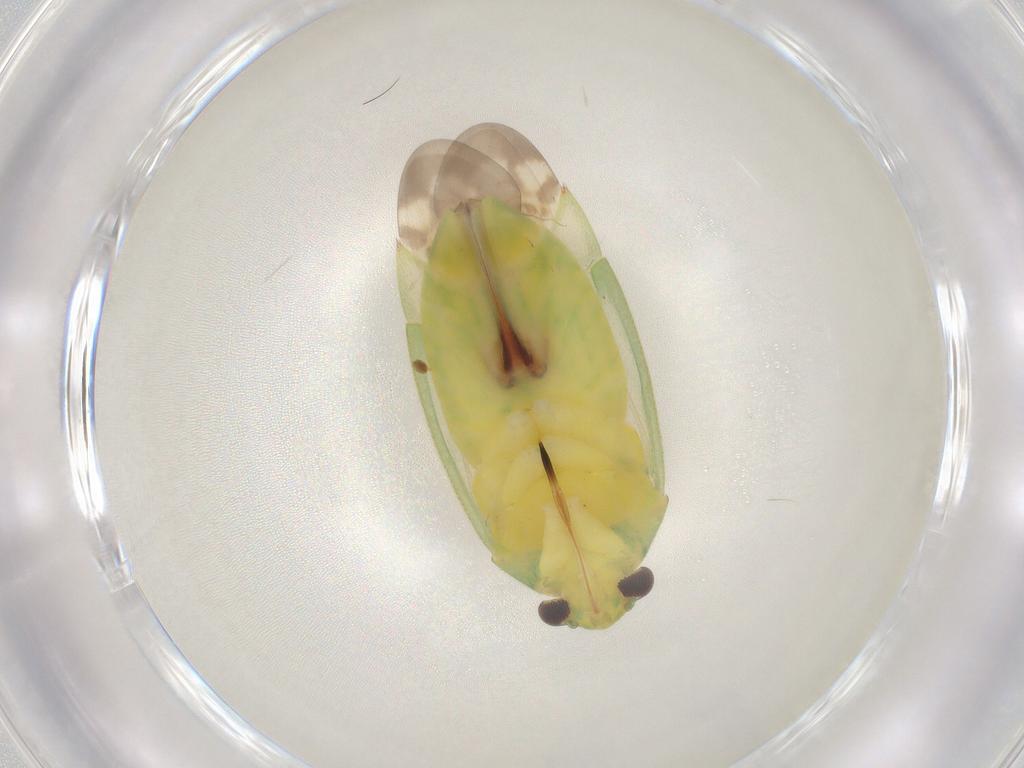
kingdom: Animalia
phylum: Arthropoda
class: Insecta
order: Hemiptera
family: Miridae
